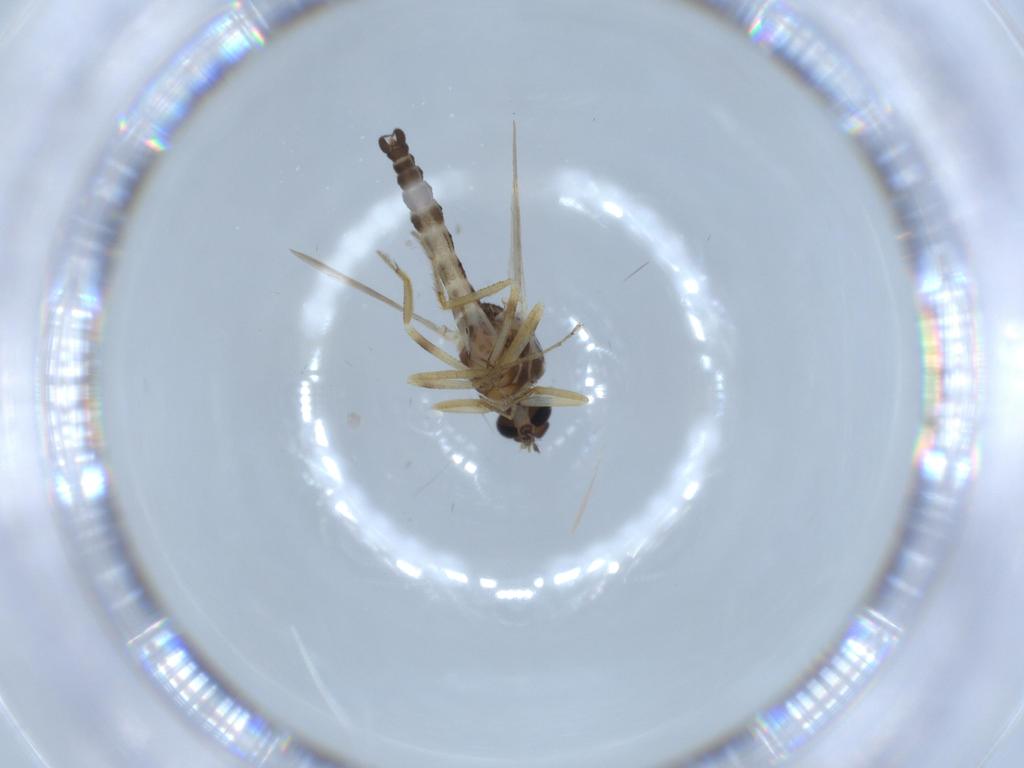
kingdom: Animalia
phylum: Arthropoda
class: Insecta
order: Diptera
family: Ceratopogonidae
